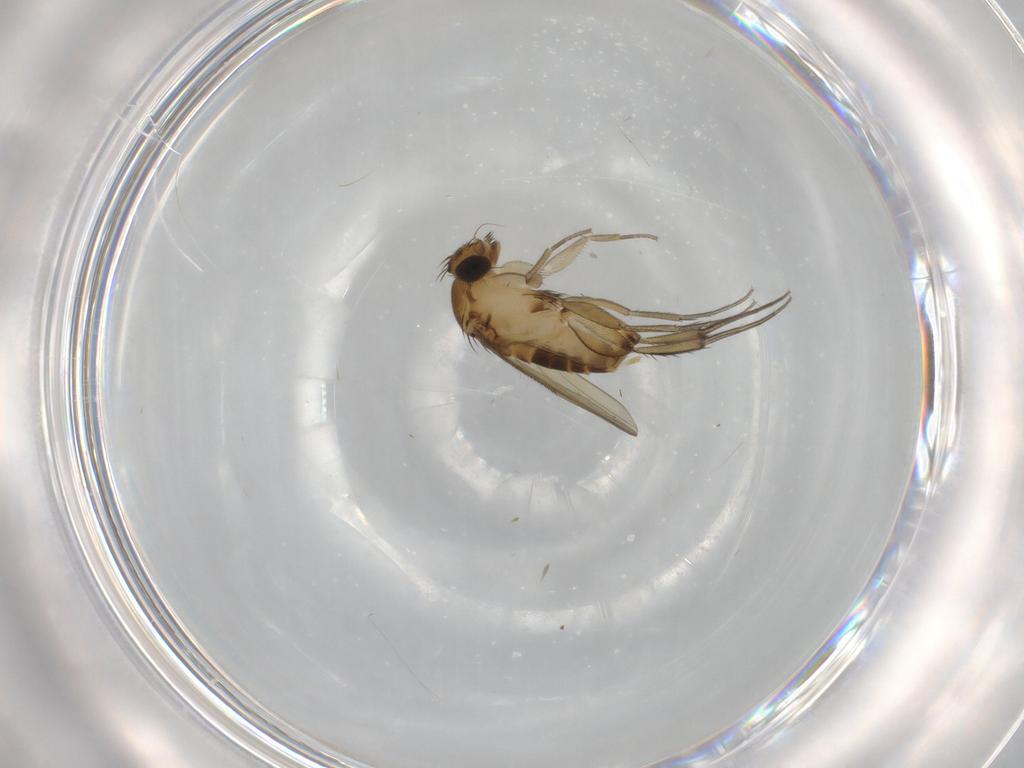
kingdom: Animalia
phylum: Arthropoda
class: Insecta
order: Diptera
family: Phoridae
